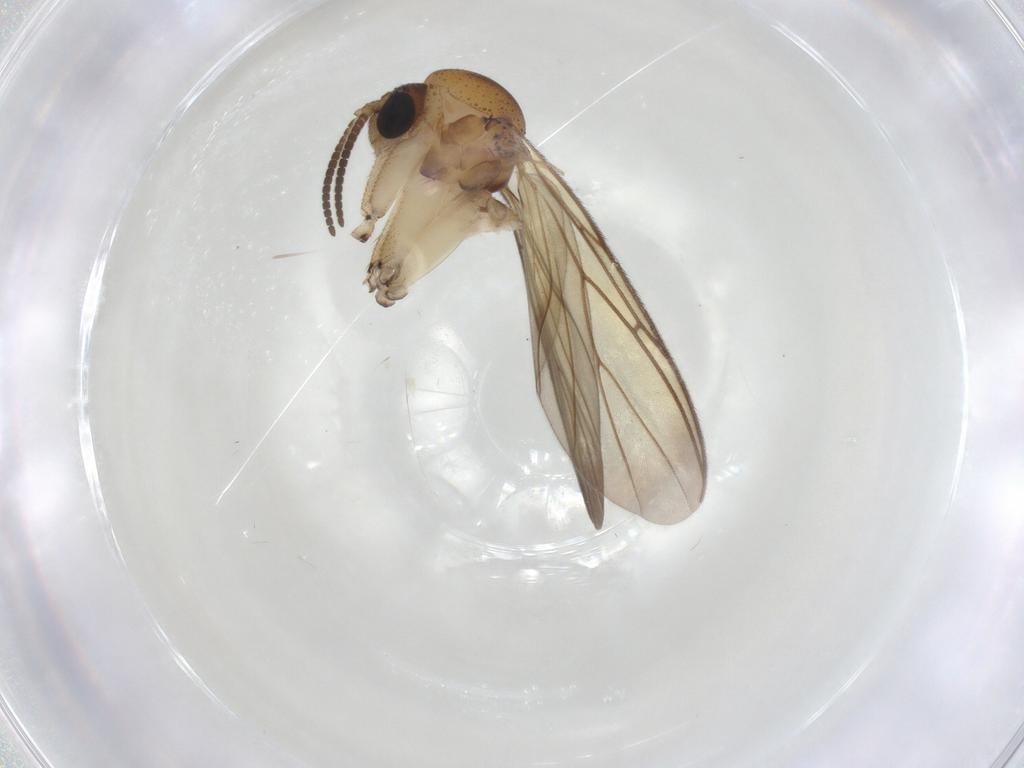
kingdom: Animalia
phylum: Arthropoda
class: Insecta
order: Diptera
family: Mycetophilidae
